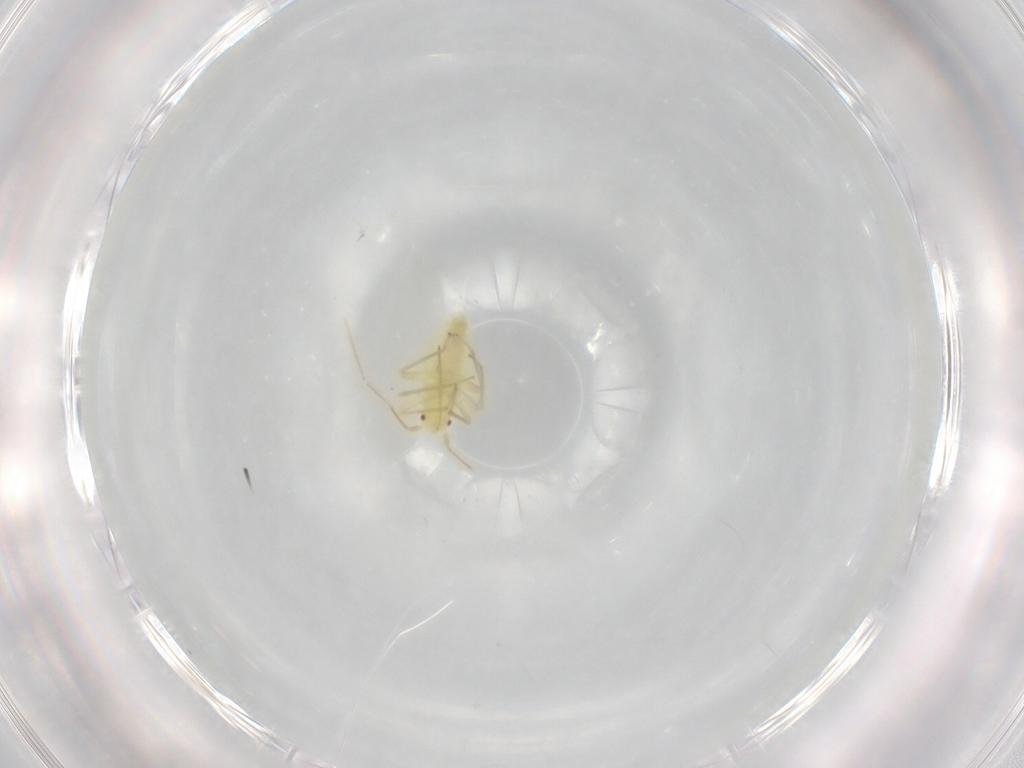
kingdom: Animalia
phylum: Arthropoda
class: Insecta
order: Hemiptera
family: Miridae
